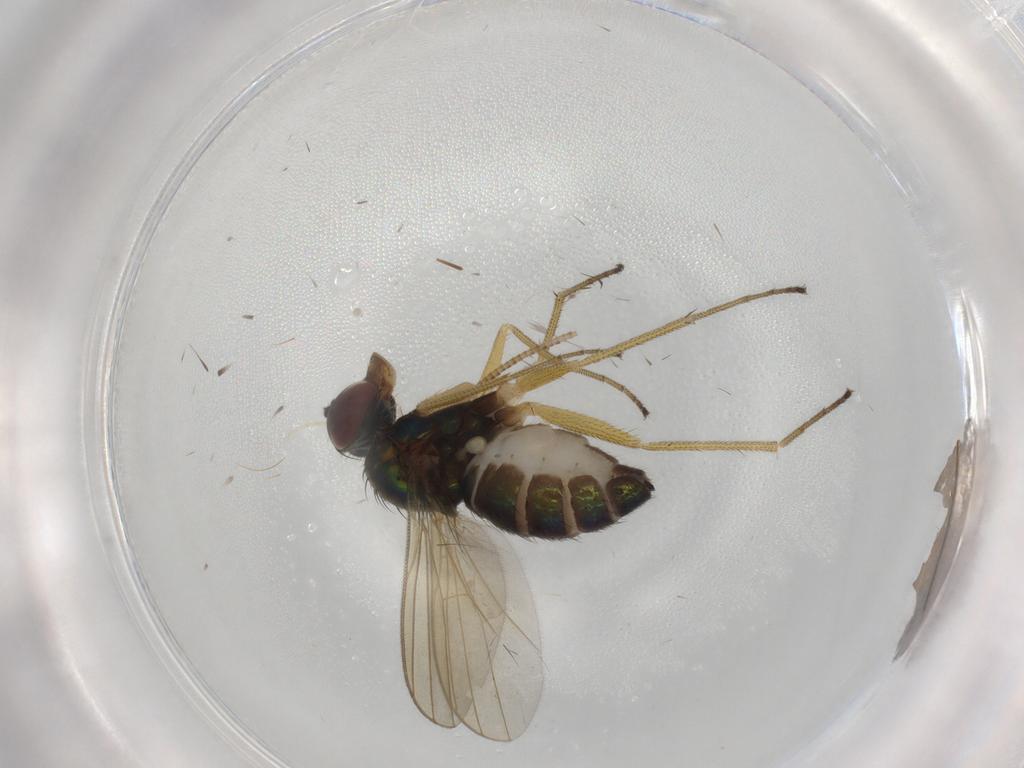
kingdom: Animalia
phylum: Arthropoda
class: Insecta
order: Diptera
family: Dolichopodidae
